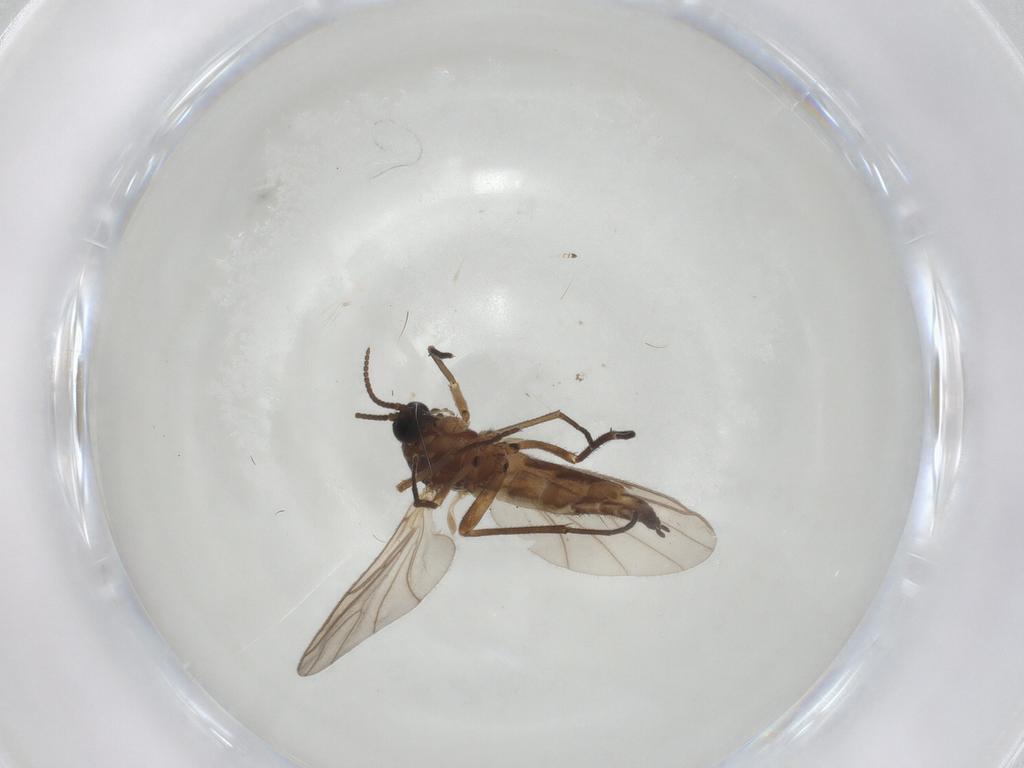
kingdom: Animalia
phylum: Arthropoda
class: Insecta
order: Diptera
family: Sciaridae
